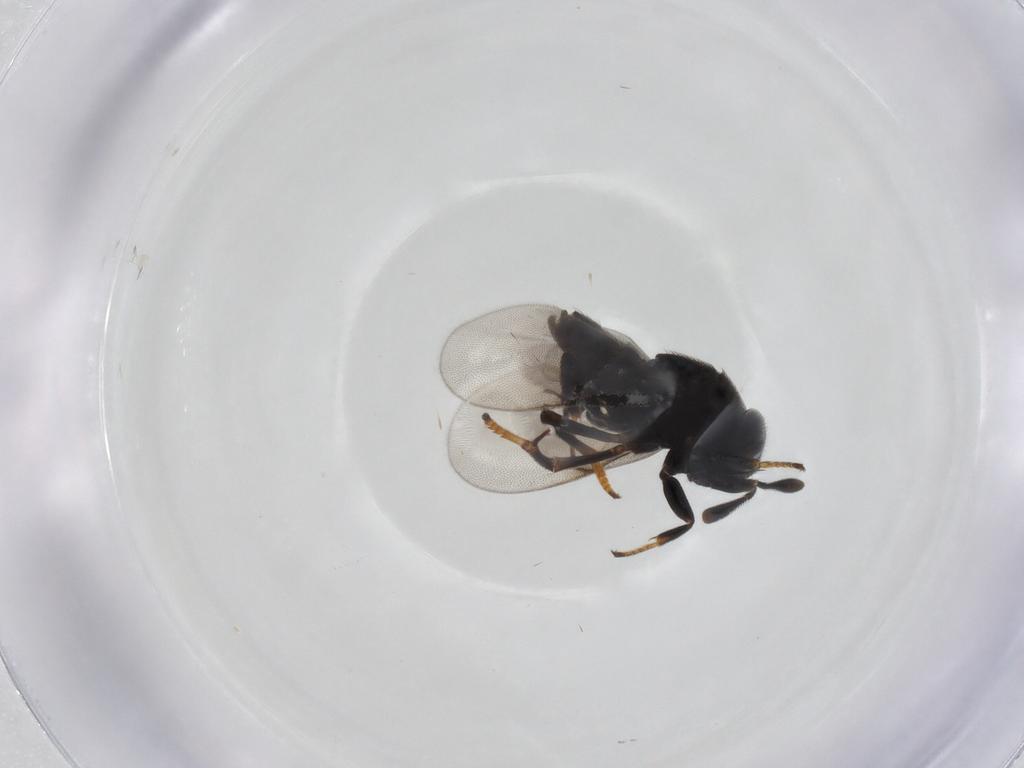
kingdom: Animalia
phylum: Arthropoda
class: Insecta
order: Hymenoptera
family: Encyrtidae
